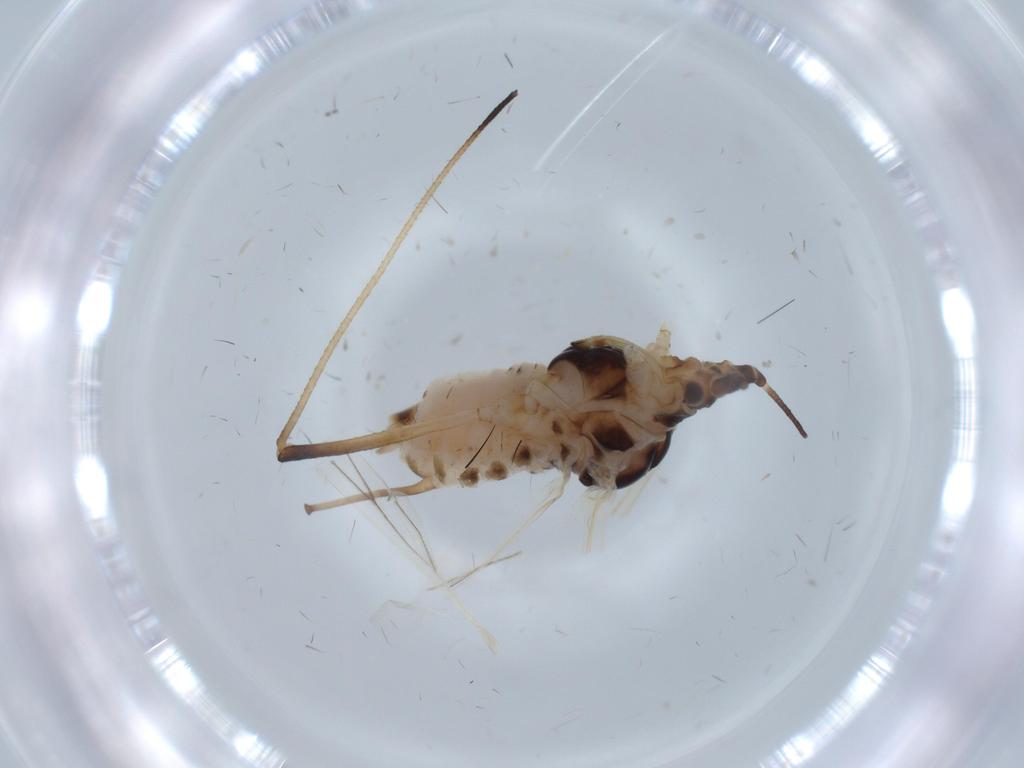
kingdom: Animalia
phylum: Arthropoda
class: Insecta
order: Hemiptera
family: Aphididae
